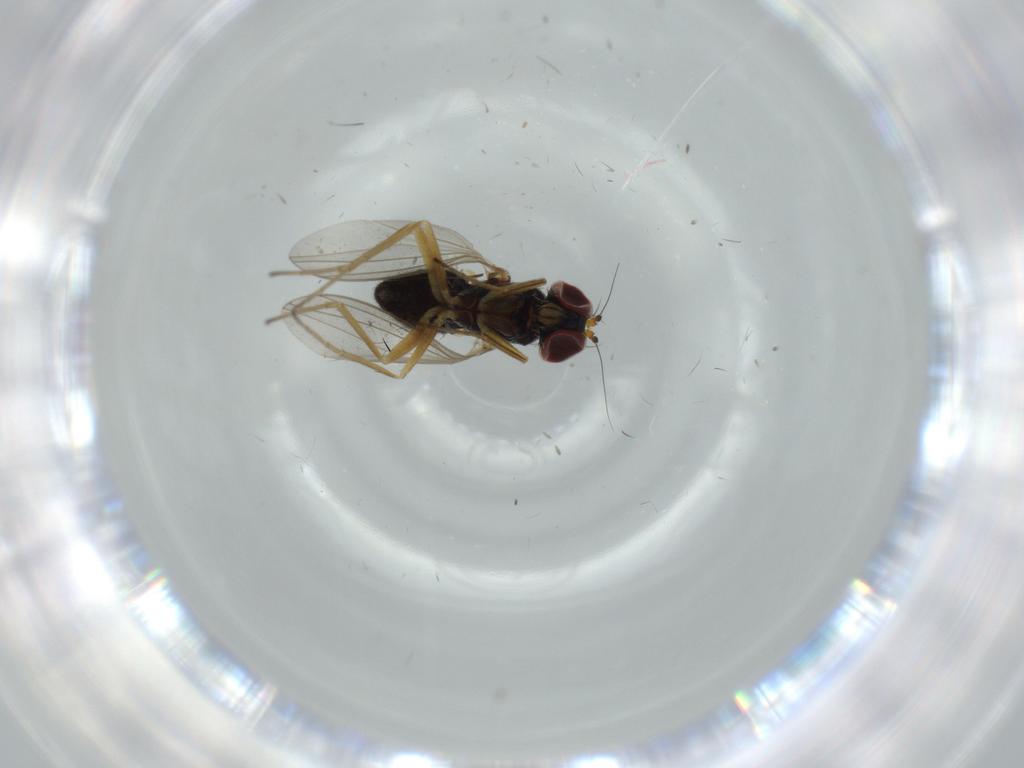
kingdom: Animalia
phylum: Arthropoda
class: Insecta
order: Diptera
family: Dolichopodidae
